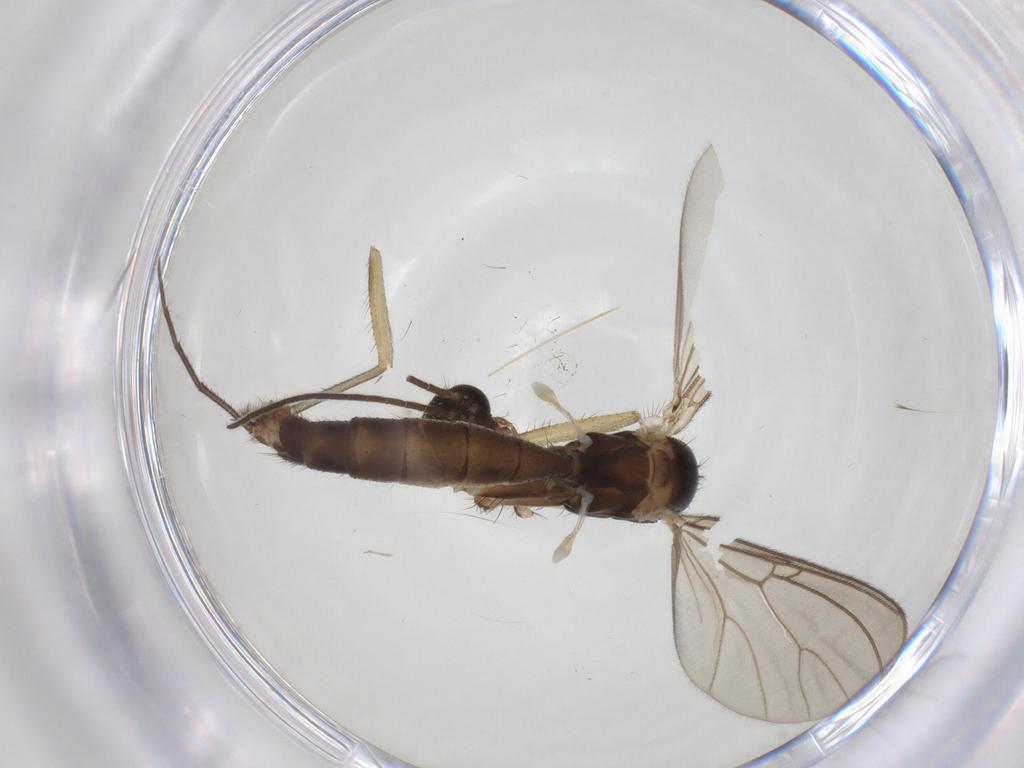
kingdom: Animalia
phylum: Arthropoda
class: Insecta
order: Diptera
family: Mycetophilidae
